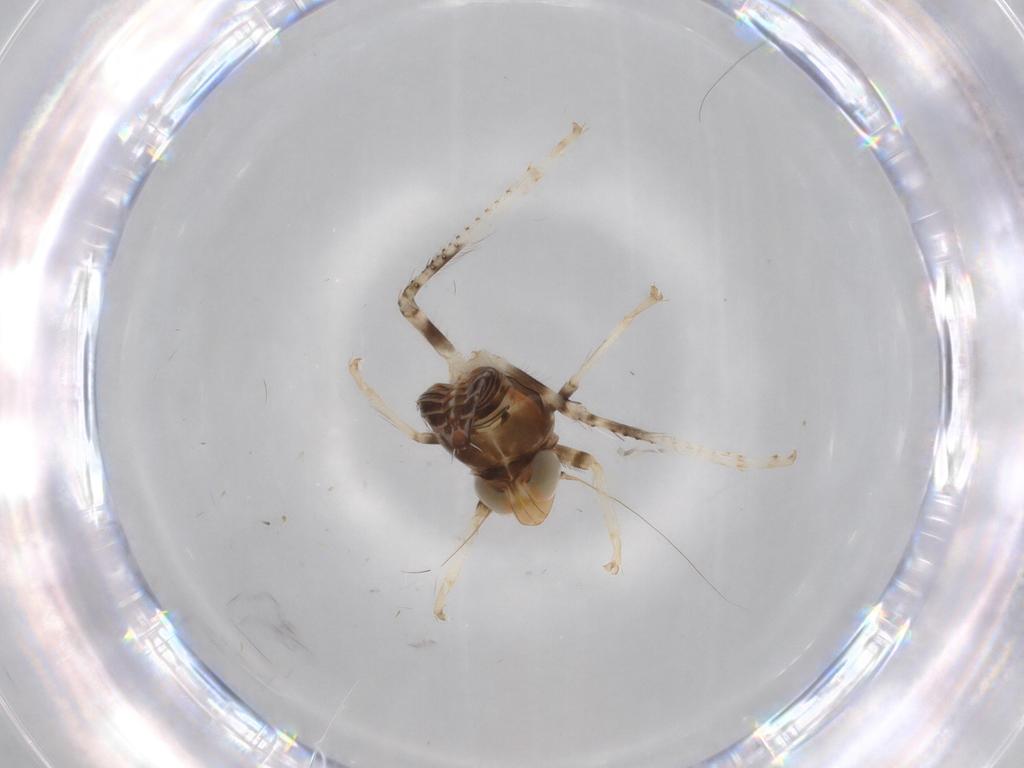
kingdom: Animalia
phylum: Arthropoda
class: Insecta
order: Hemiptera
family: Cicadellidae
